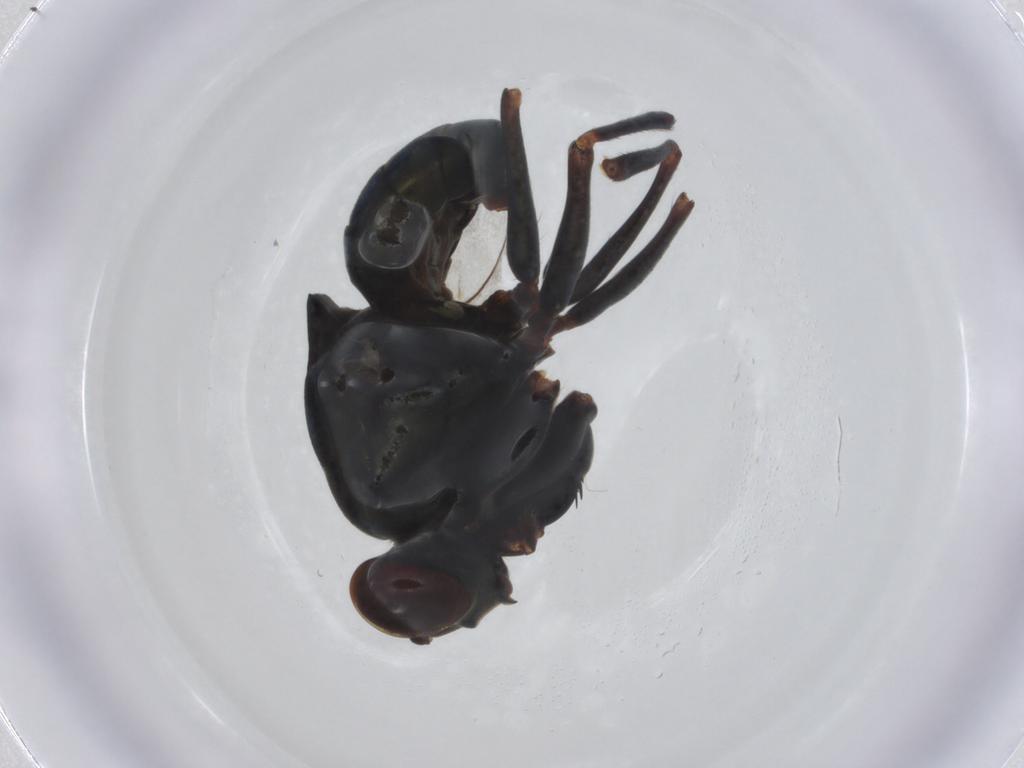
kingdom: Animalia
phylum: Arthropoda
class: Insecta
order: Diptera
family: Ephydridae
